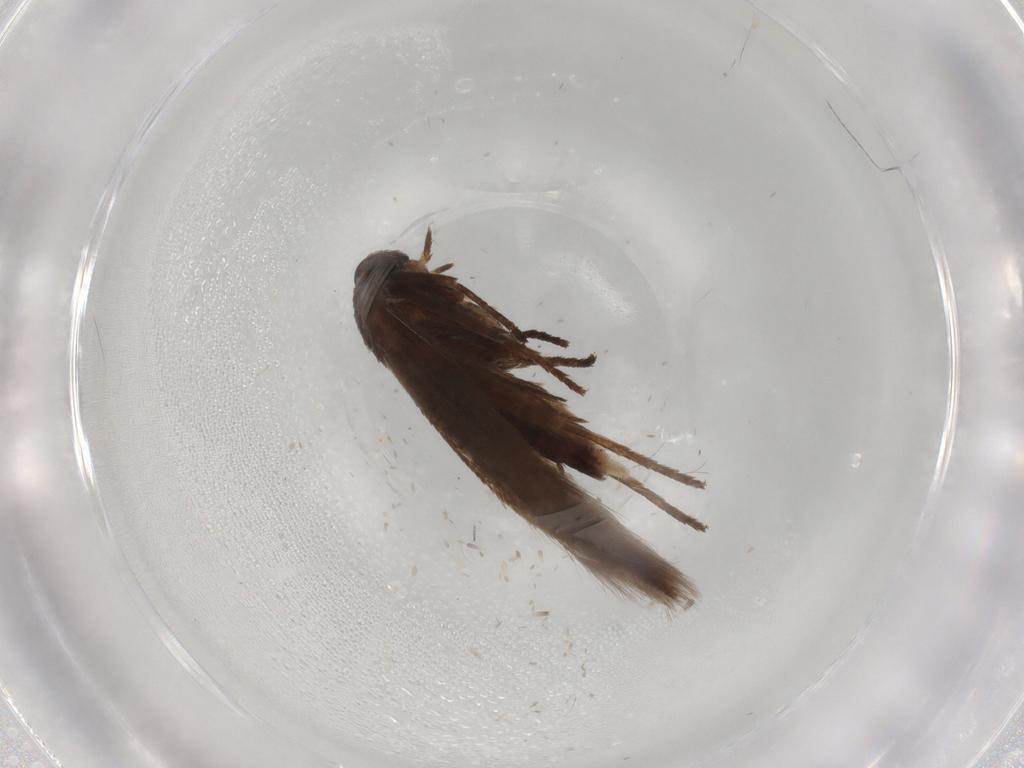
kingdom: Animalia
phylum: Arthropoda
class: Insecta
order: Lepidoptera
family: Scythrididae
